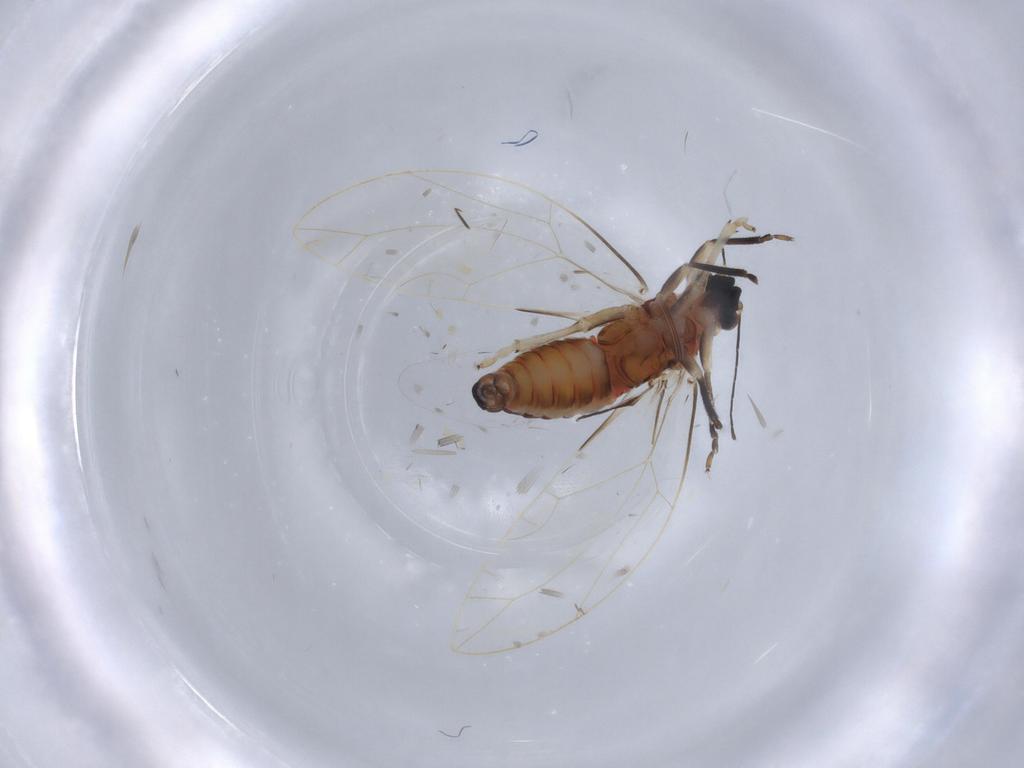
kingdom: Animalia
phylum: Arthropoda
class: Insecta
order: Hemiptera
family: Triozidae
